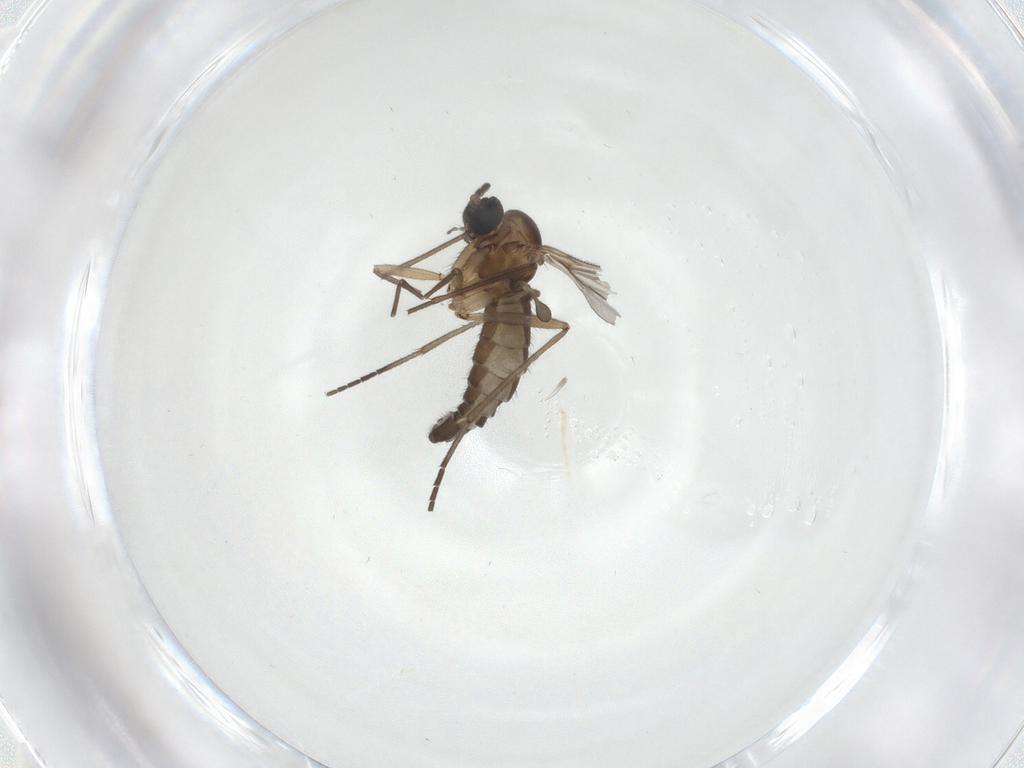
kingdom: Animalia
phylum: Arthropoda
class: Insecta
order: Diptera
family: Sciaridae
